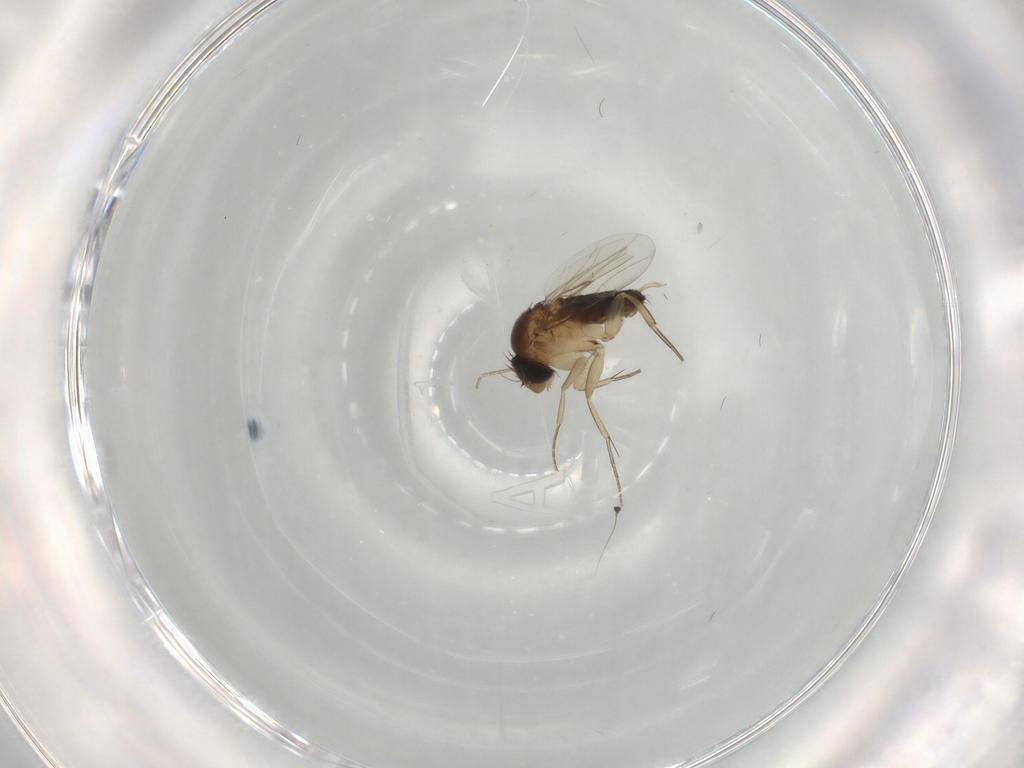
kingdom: Animalia
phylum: Arthropoda
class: Insecta
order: Diptera
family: Phoridae
